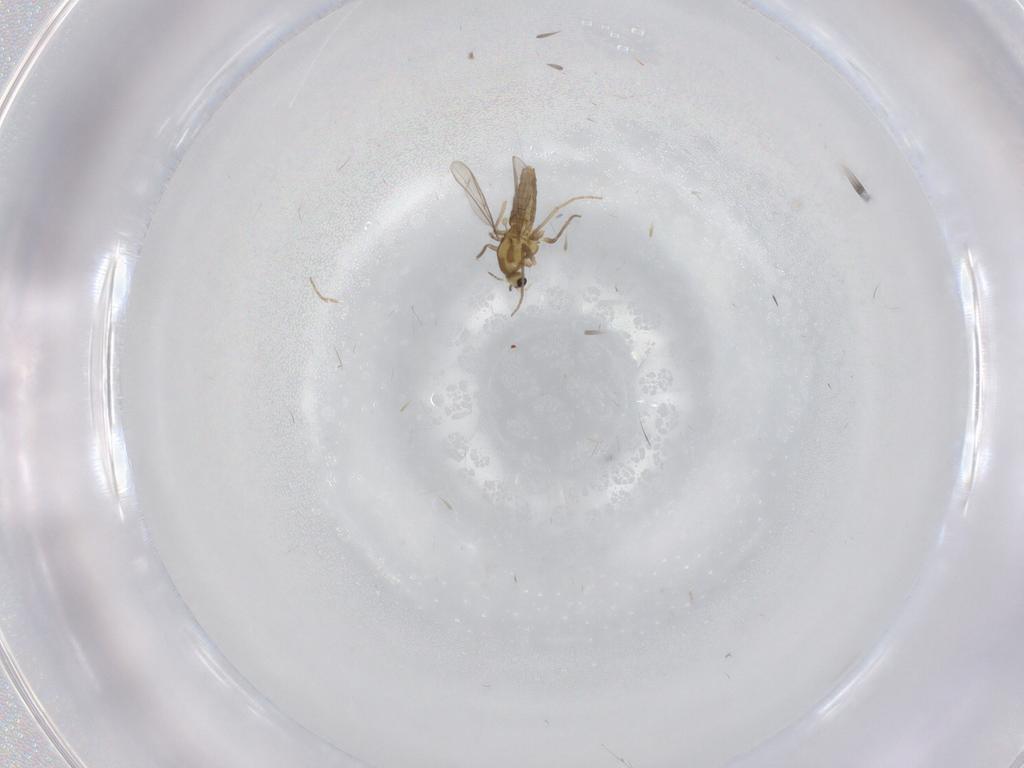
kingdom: Animalia
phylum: Arthropoda
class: Insecta
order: Diptera
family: Chironomidae
